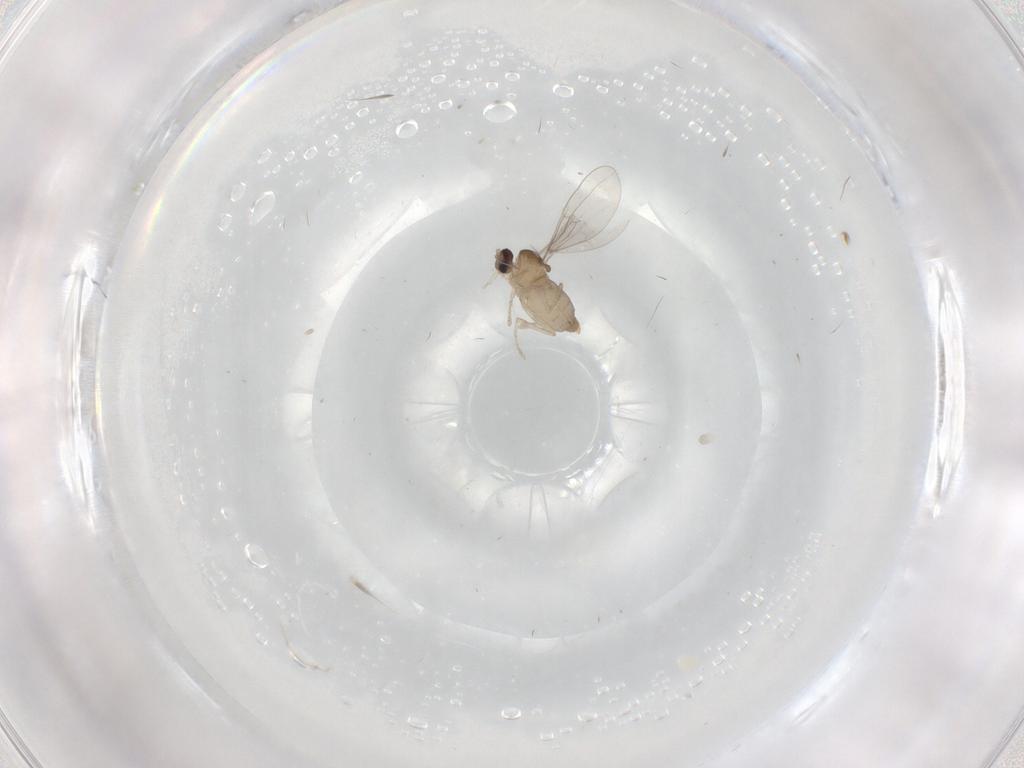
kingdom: Animalia
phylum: Arthropoda
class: Insecta
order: Diptera
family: Cecidomyiidae
